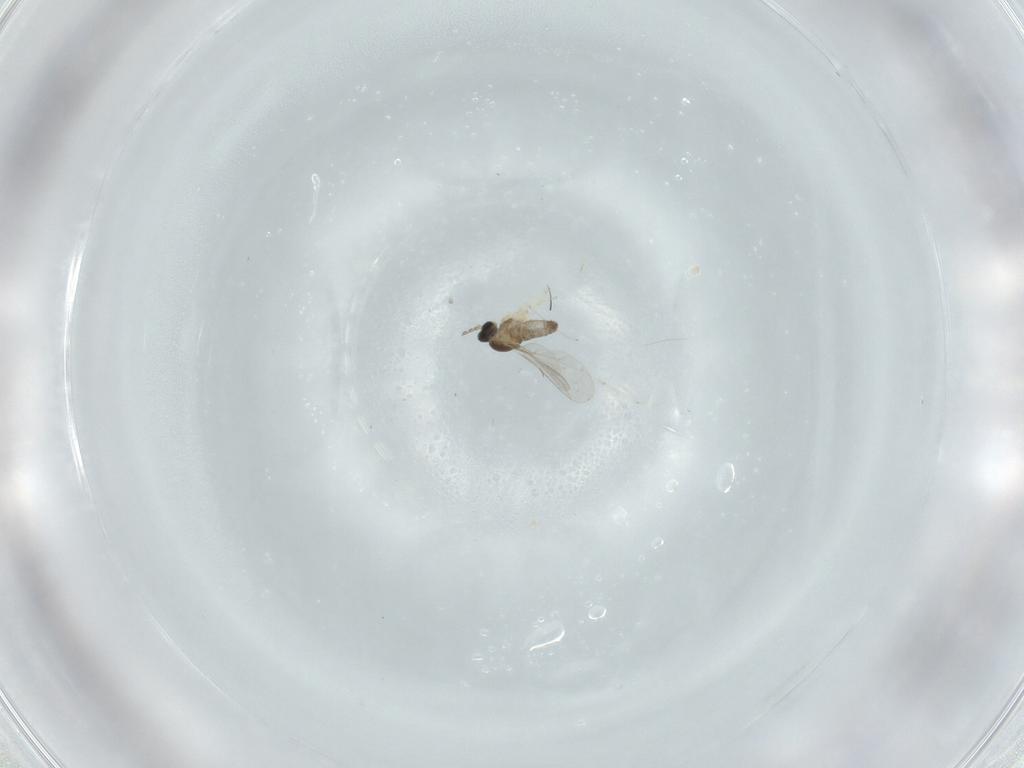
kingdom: Animalia
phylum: Arthropoda
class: Insecta
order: Diptera
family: Cecidomyiidae
